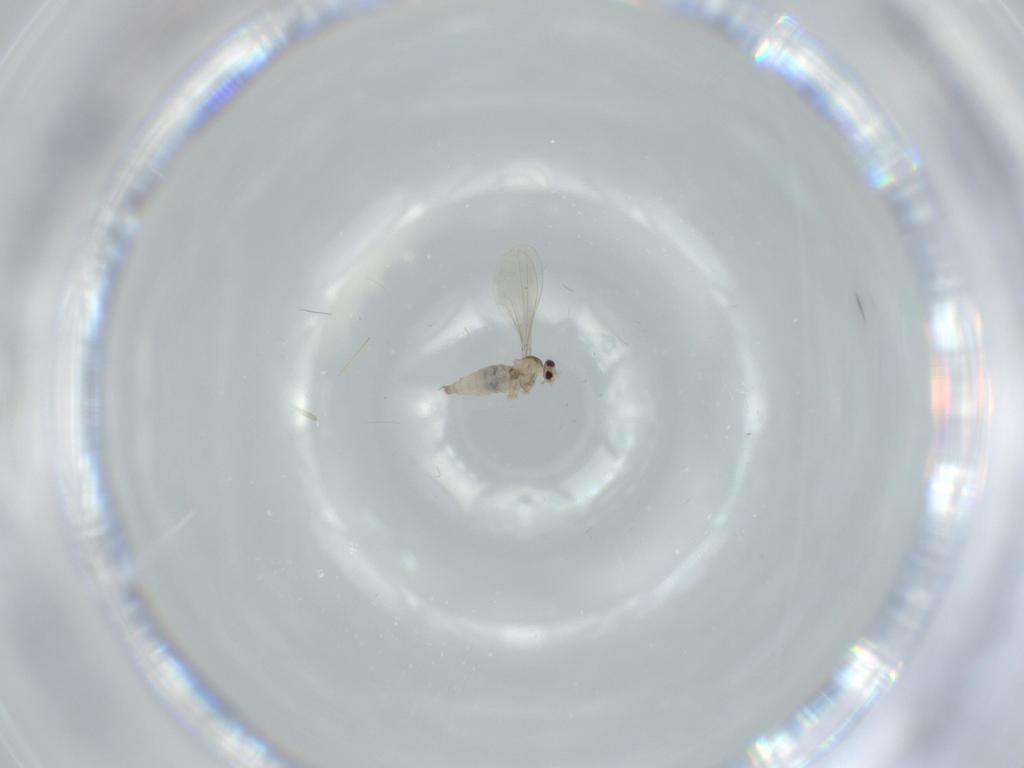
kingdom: Animalia
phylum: Arthropoda
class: Insecta
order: Diptera
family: Cecidomyiidae
